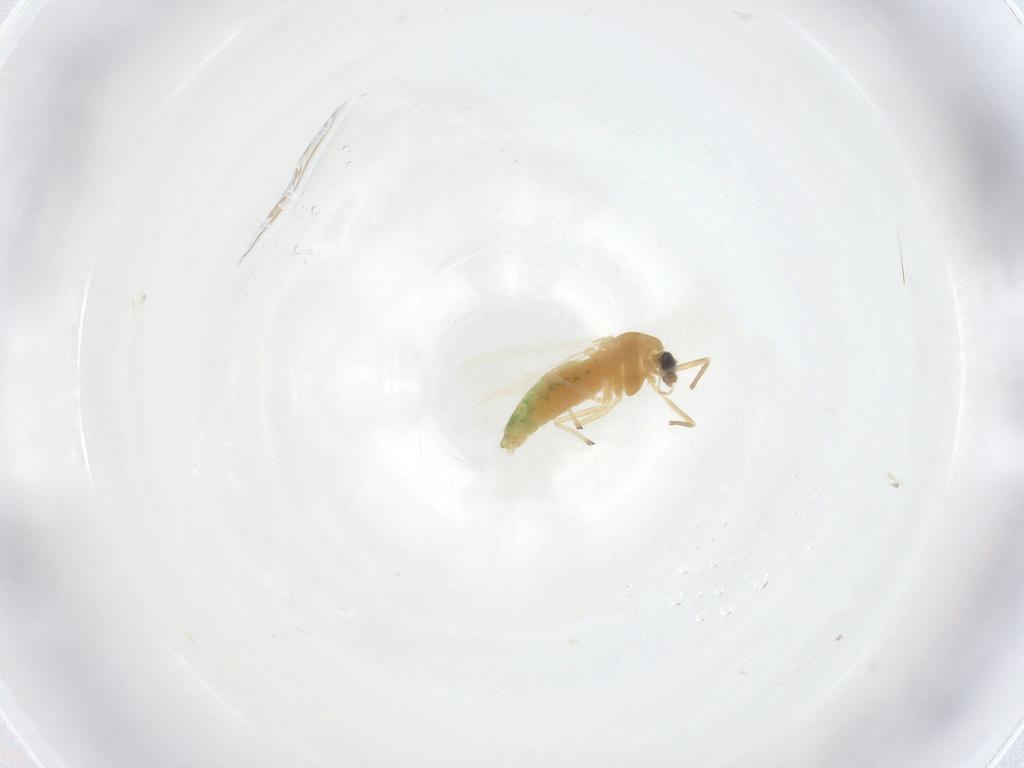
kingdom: Animalia
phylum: Arthropoda
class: Insecta
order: Diptera
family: Chironomidae
